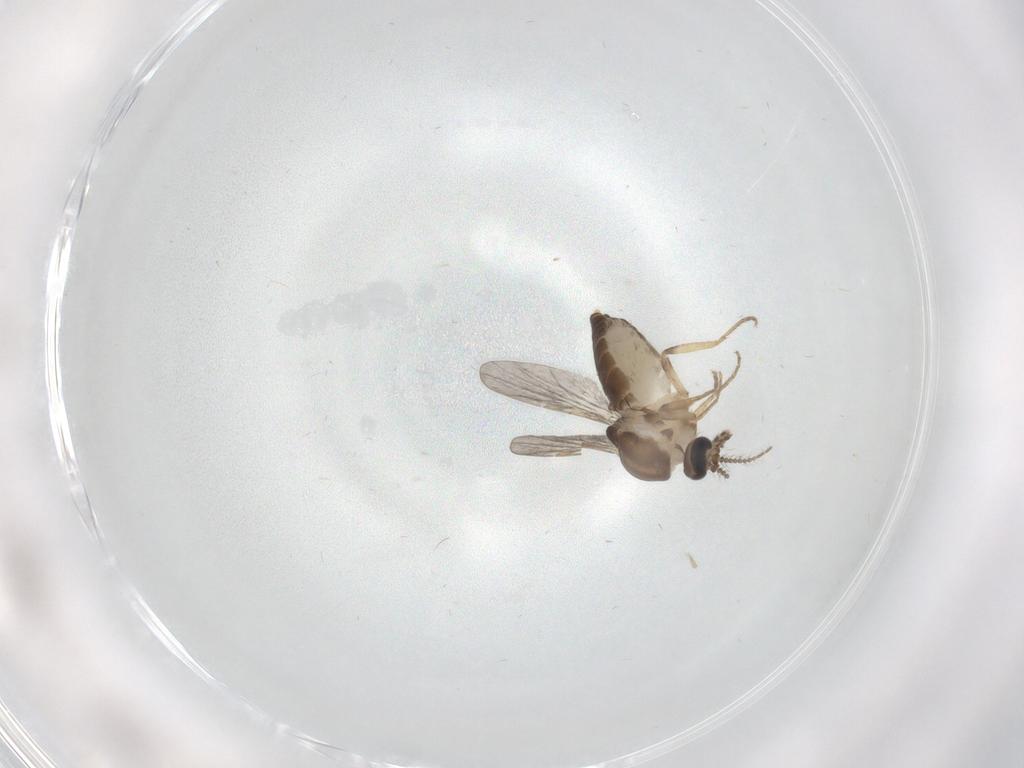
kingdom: Animalia
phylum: Arthropoda
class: Insecta
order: Diptera
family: Ceratopogonidae
